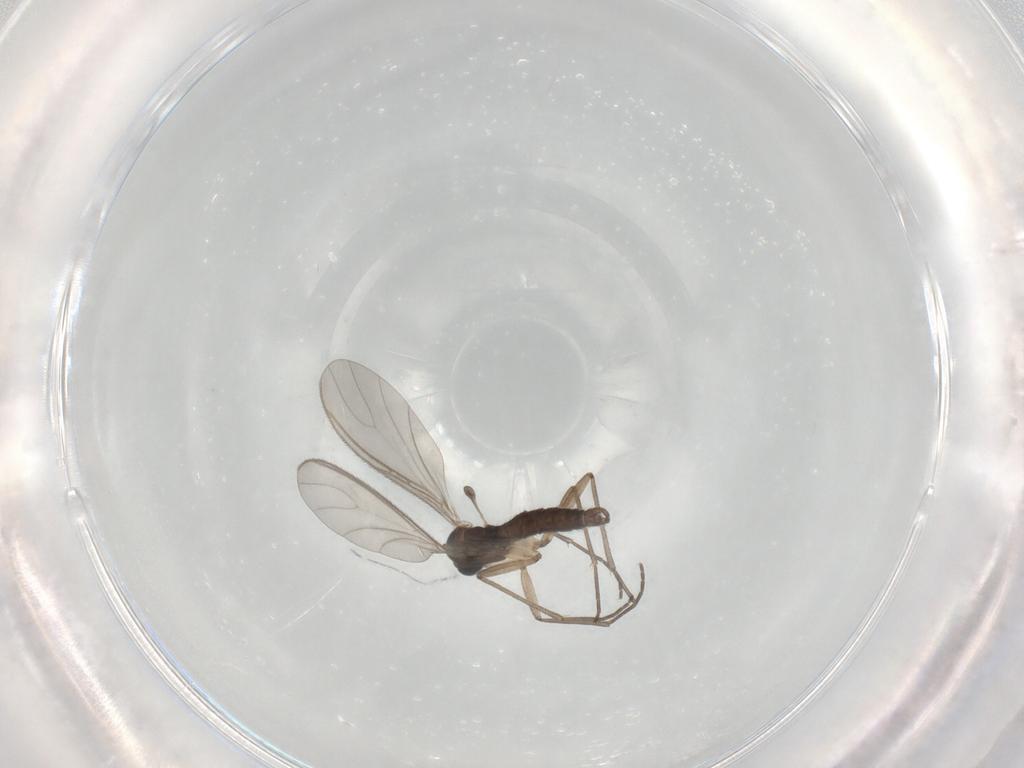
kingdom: Animalia
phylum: Arthropoda
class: Insecta
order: Diptera
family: Sciaridae
